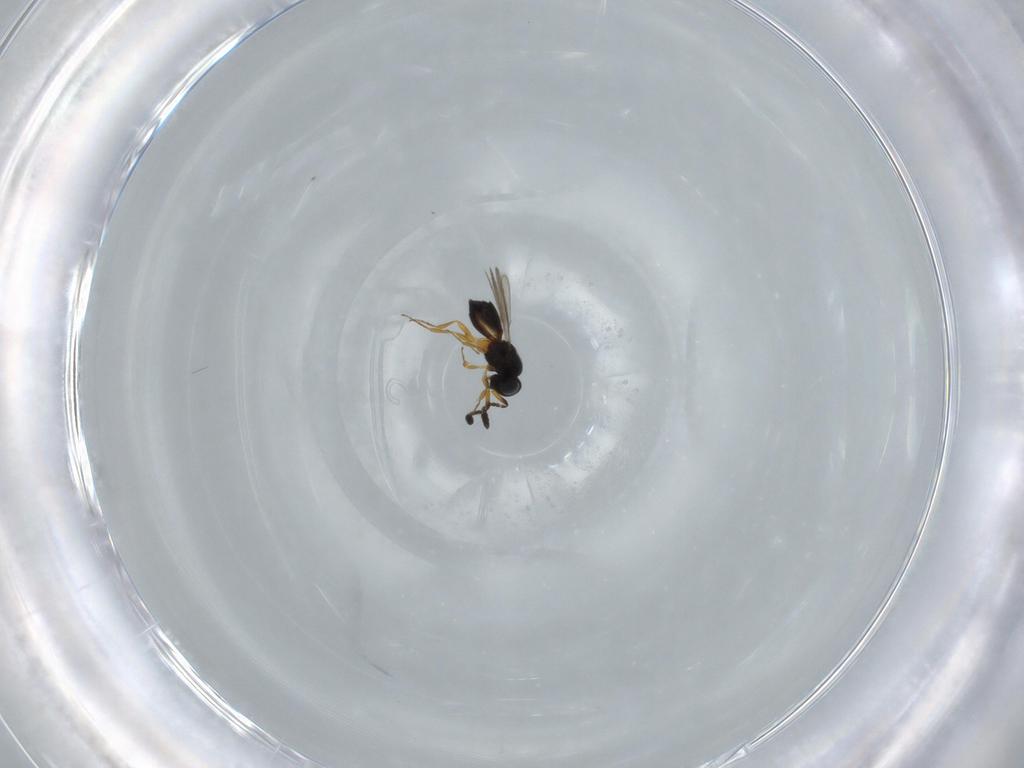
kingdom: Animalia
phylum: Arthropoda
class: Insecta
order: Hymenoptera
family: Scelionidae
